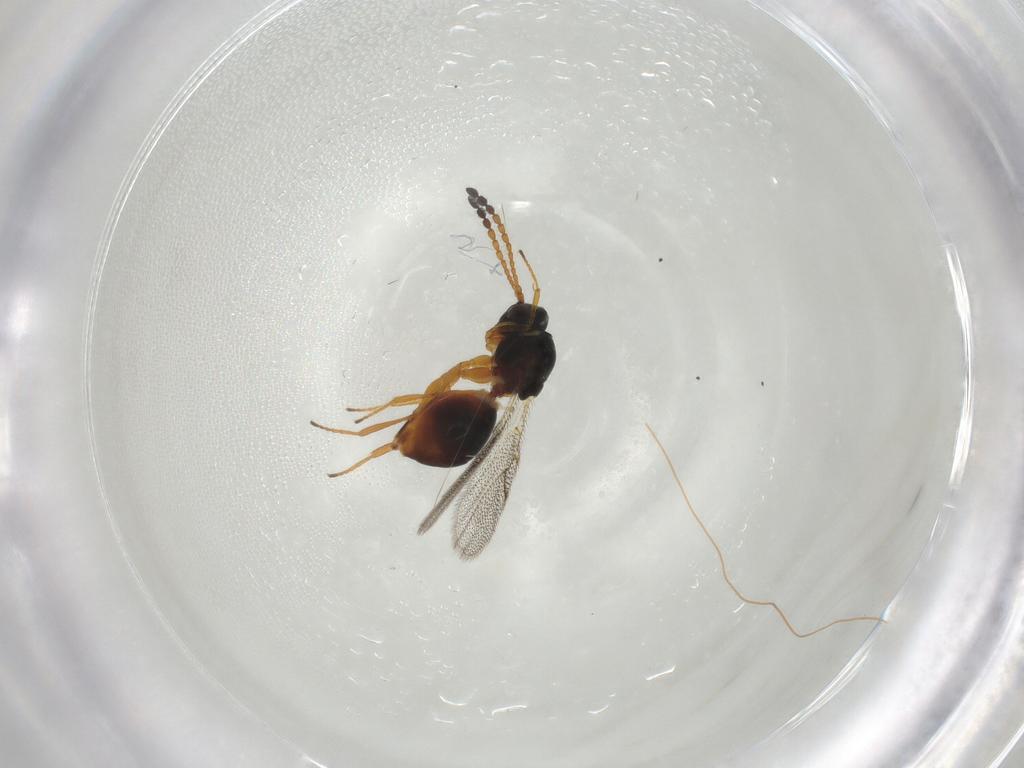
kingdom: Animalia
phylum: Arthropoda
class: Insecta
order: Hymenoptera
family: Figitidae
